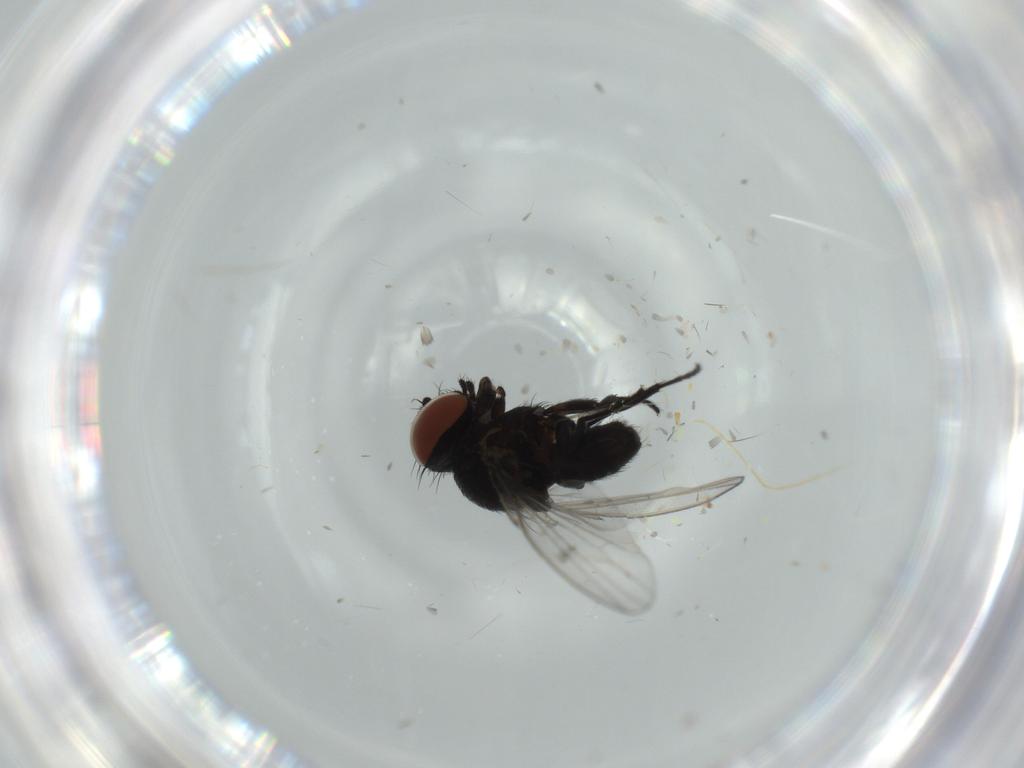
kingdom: Animalia
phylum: Arthropoda
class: Insecta
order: Diptera
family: Milichiidae
